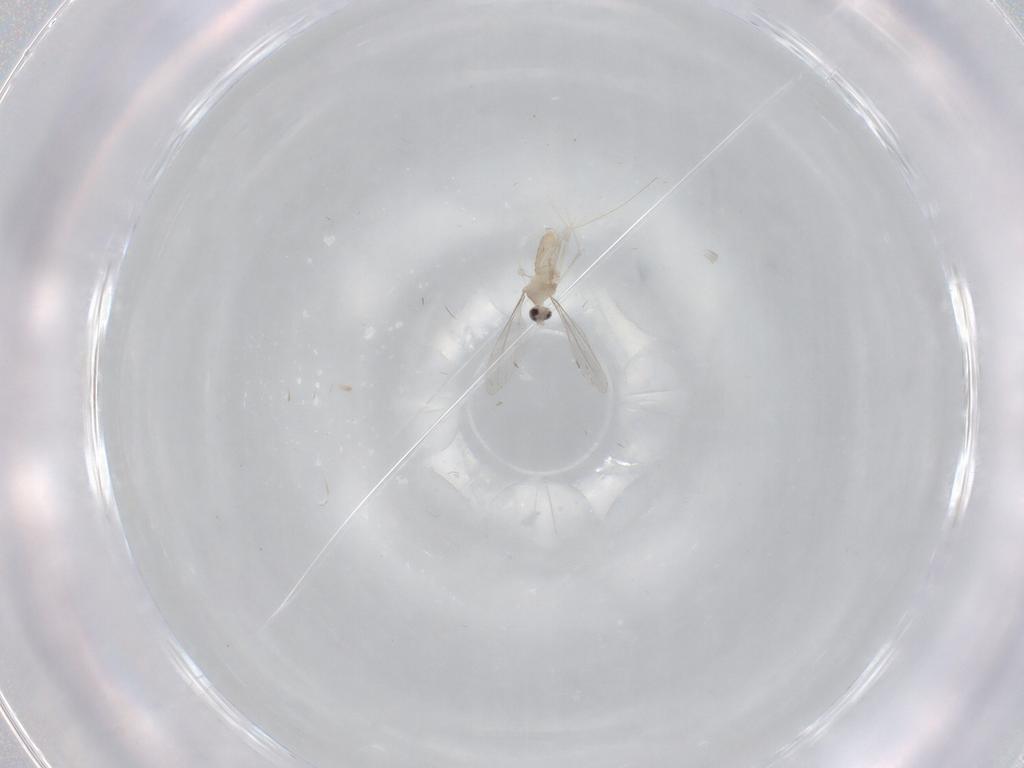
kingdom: Animalia
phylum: Arthropoda
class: Insecta
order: Diptera
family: Cecidomyiidae
